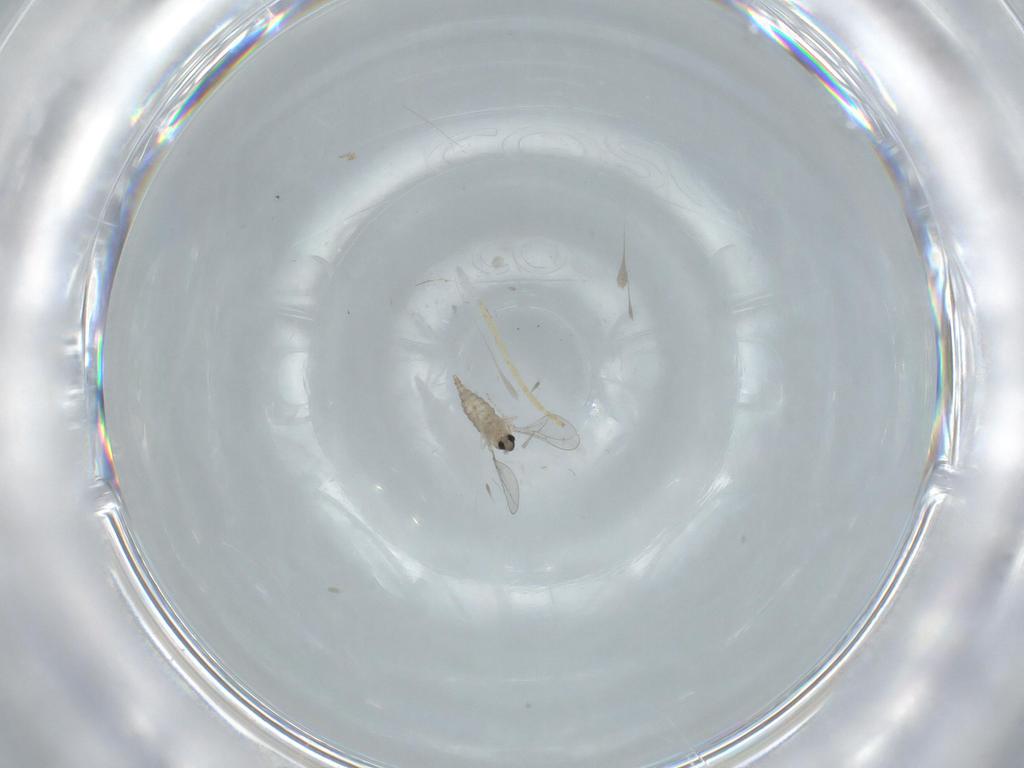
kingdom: Animalia
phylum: Arthropoda
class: Insecta
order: Diptera
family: Cecidomyiidae
